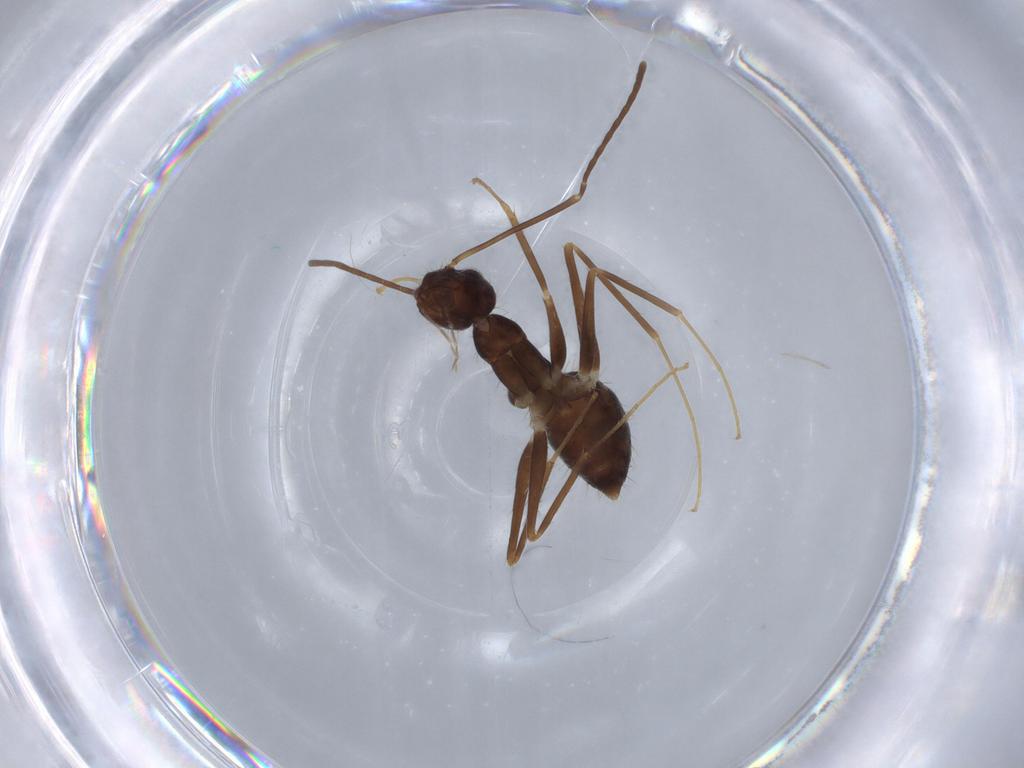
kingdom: Animalia
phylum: Arthropoda
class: Insecta
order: Hymenoptera
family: Formicidae
